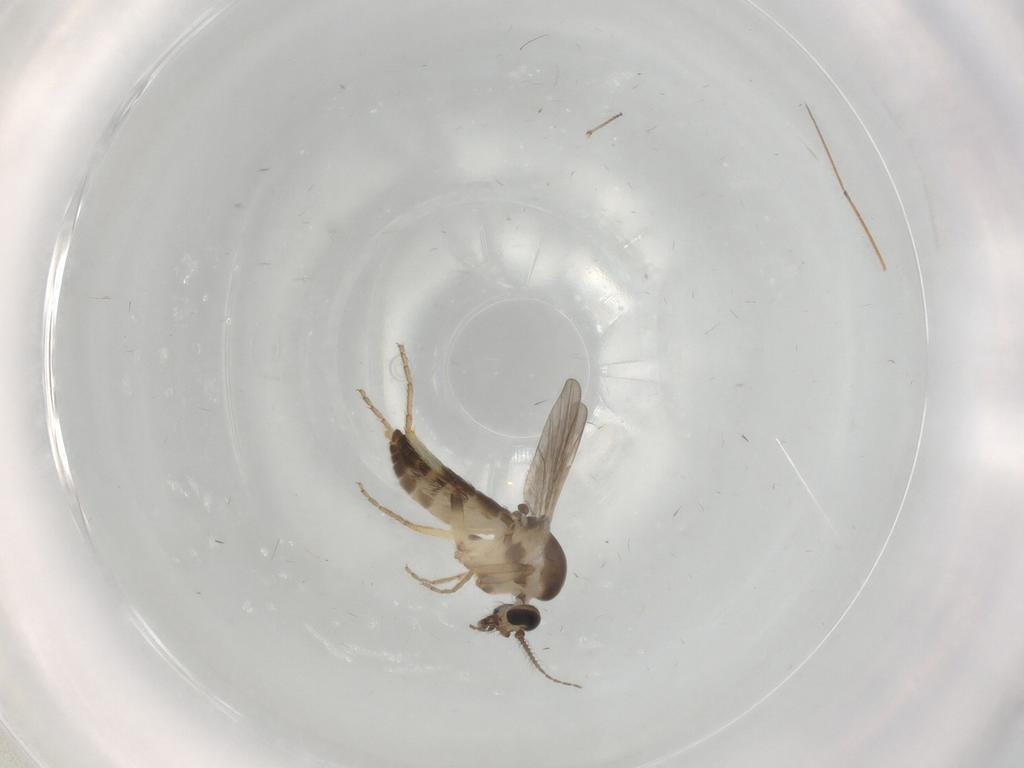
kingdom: Animalia
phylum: Arthropoda
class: Insecta
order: Diptera
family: Ceratopogonidae
